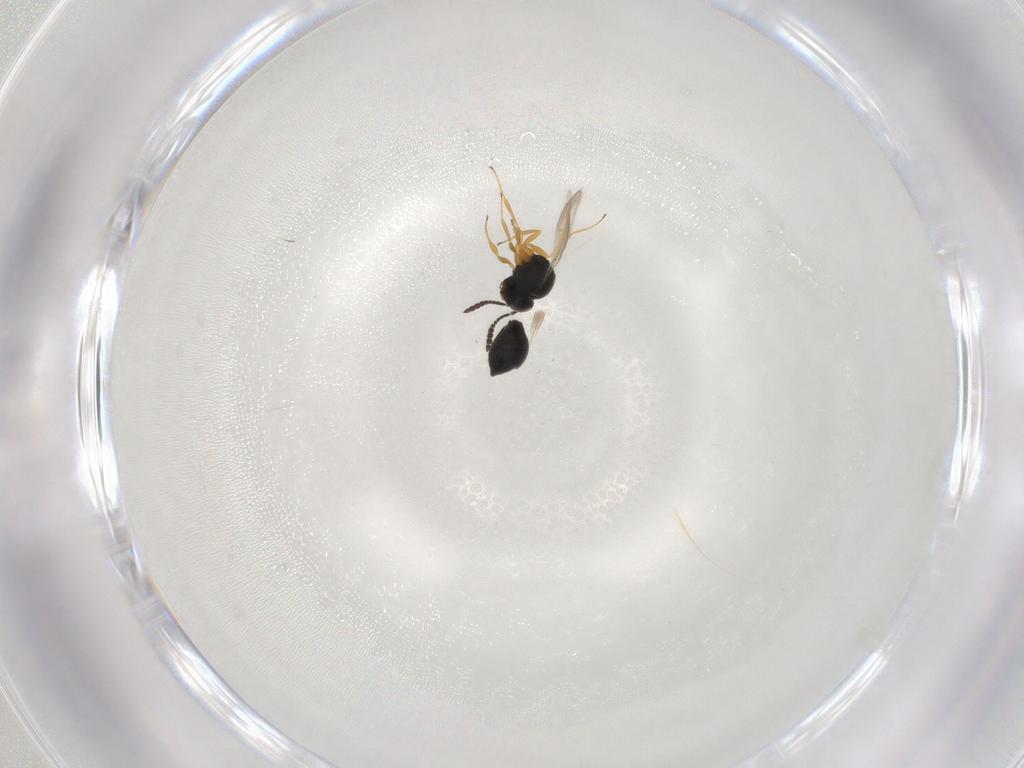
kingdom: Animalia
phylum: Arthropoda
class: Insecta
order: Hymenoptera
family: Scelionidae
